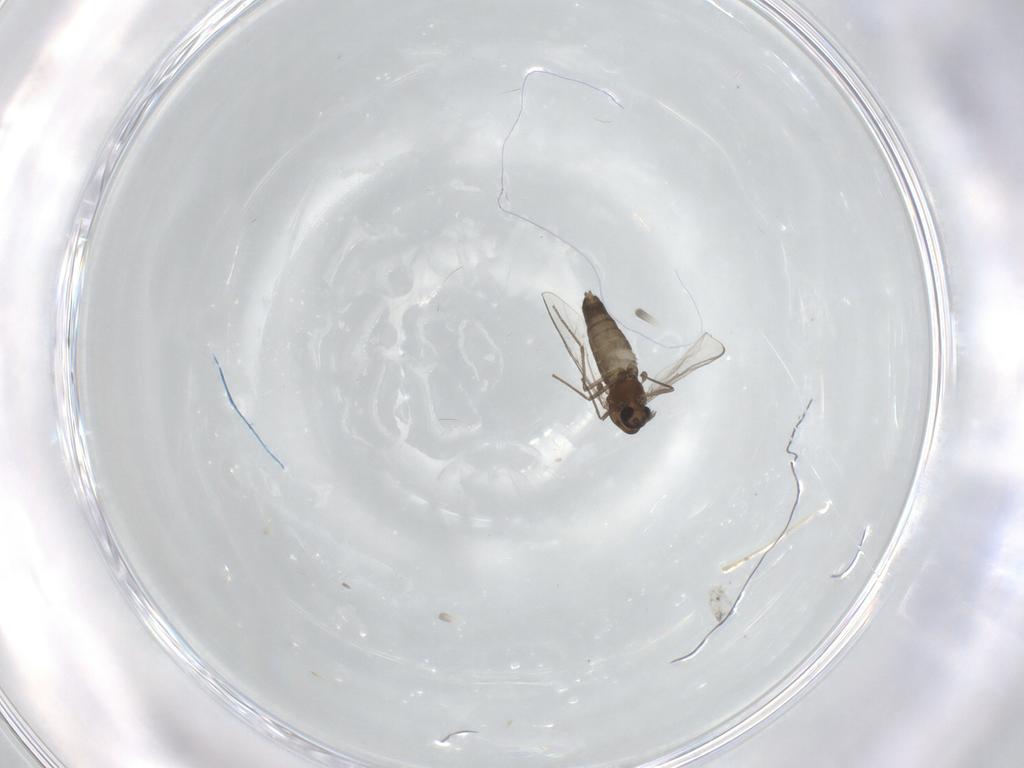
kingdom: Animalia
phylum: Arthropoda
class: Insecta
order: Diptera
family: Chironomidae
